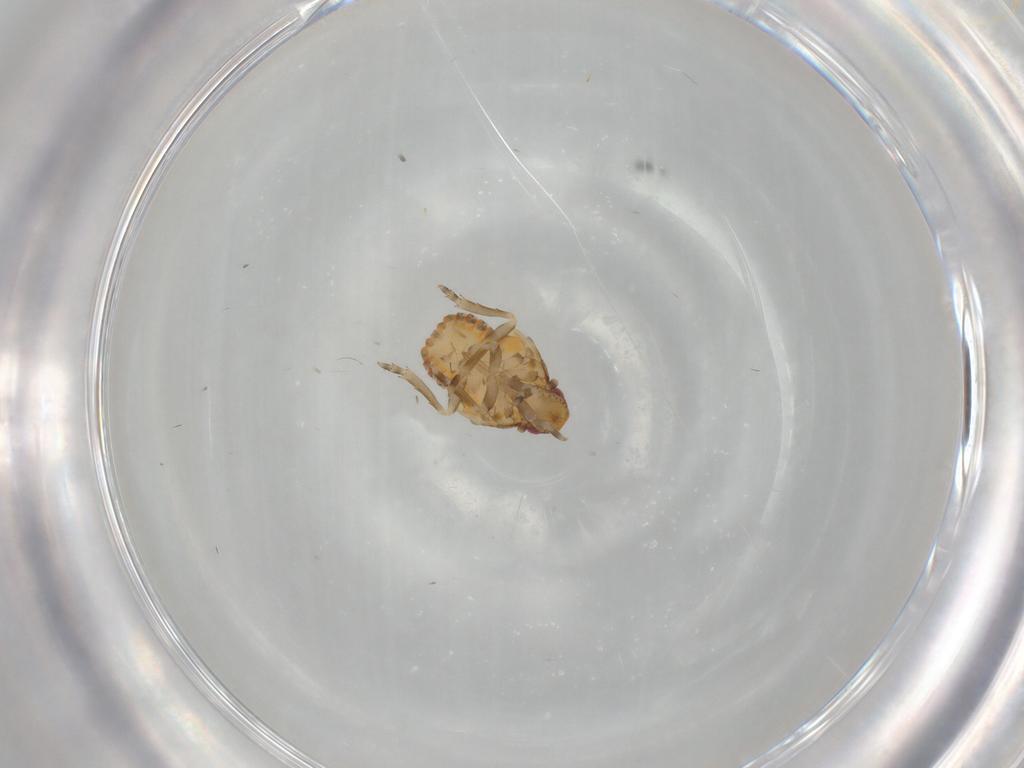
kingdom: Animalia
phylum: Arthropoda
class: Insecta
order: Hemiptera
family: Flatidae
